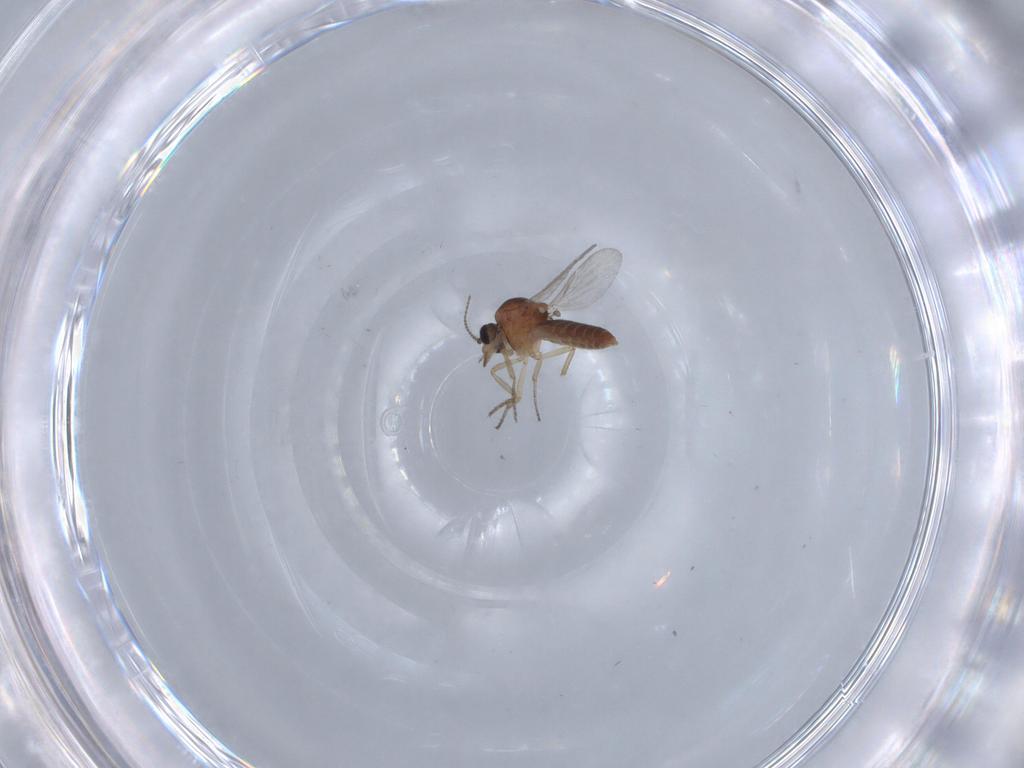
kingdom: Animalia
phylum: Arthropoda
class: Insecta
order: Diptera
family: Ceratopogonidae
